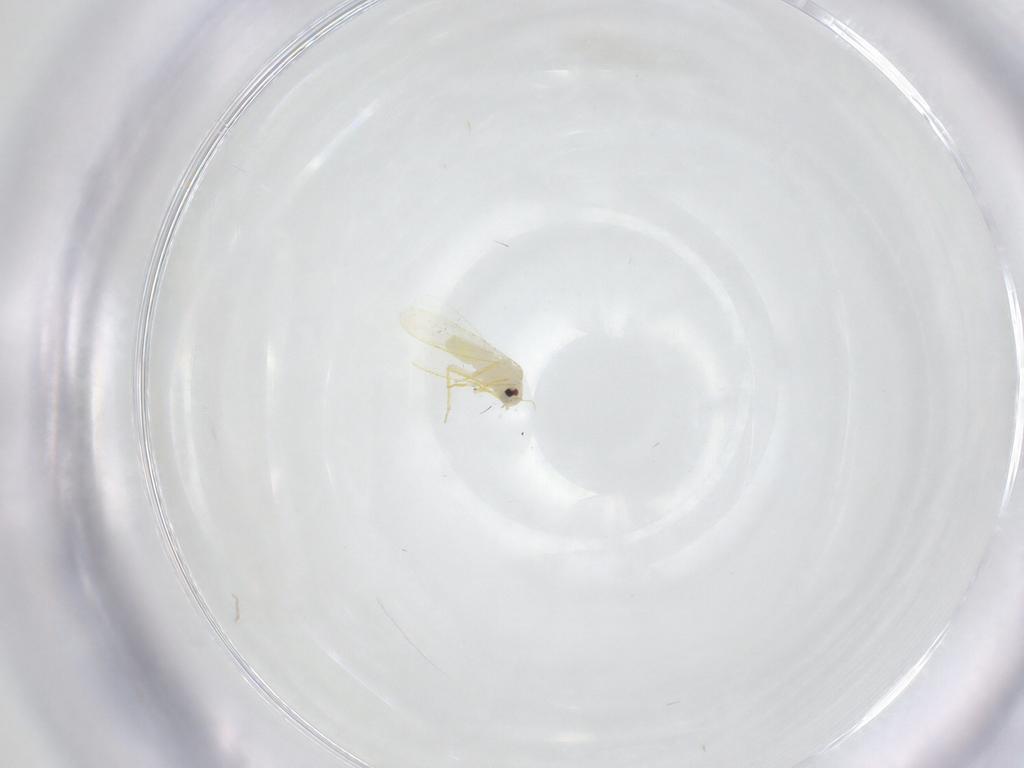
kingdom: Animalia
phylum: Arthropoda
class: Insecta
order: Hemiptera
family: Aleyrodidae
